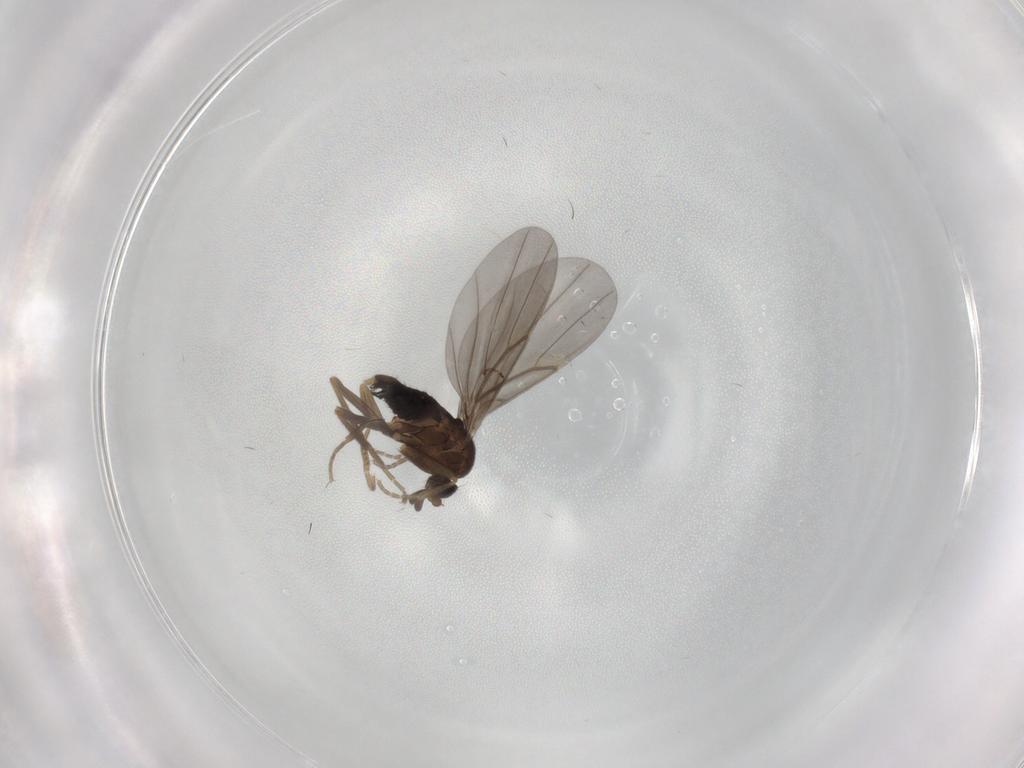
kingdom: Animalia
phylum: Arthropoda
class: Insecta
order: Diptera
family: Phoridae
